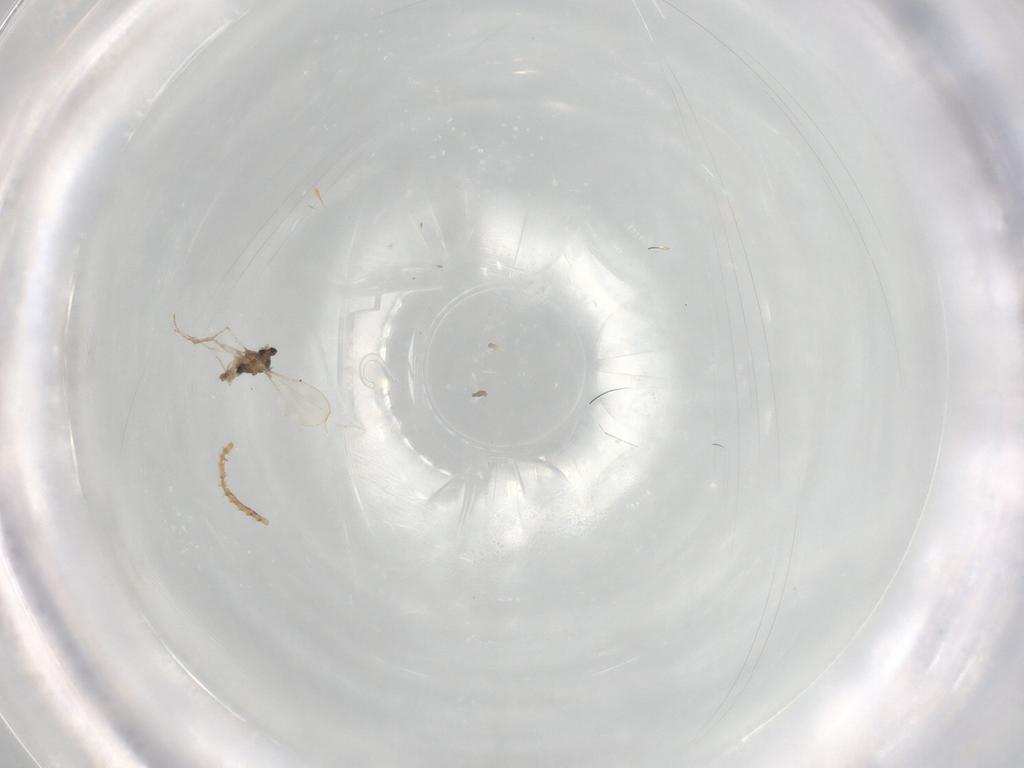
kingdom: Animalia
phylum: Arthropoda
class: Insecta
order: Diptera
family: Cecidomyiidae
